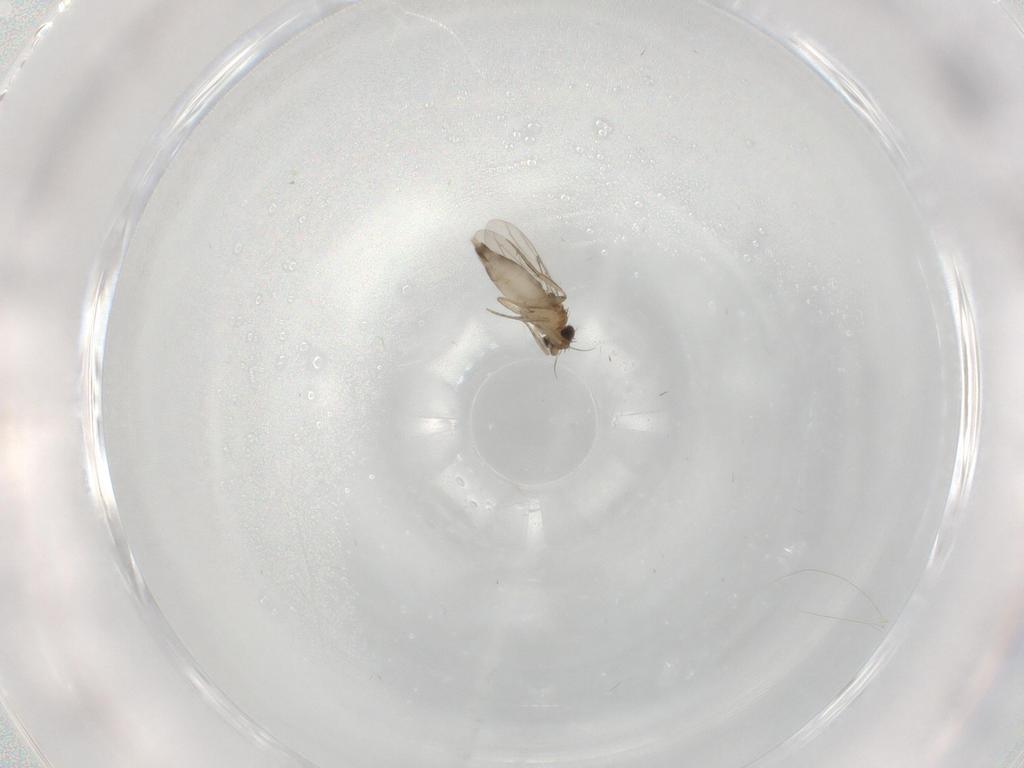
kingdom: Animalia
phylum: Arthropoda
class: Insecta
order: Diptera
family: Phoridae
